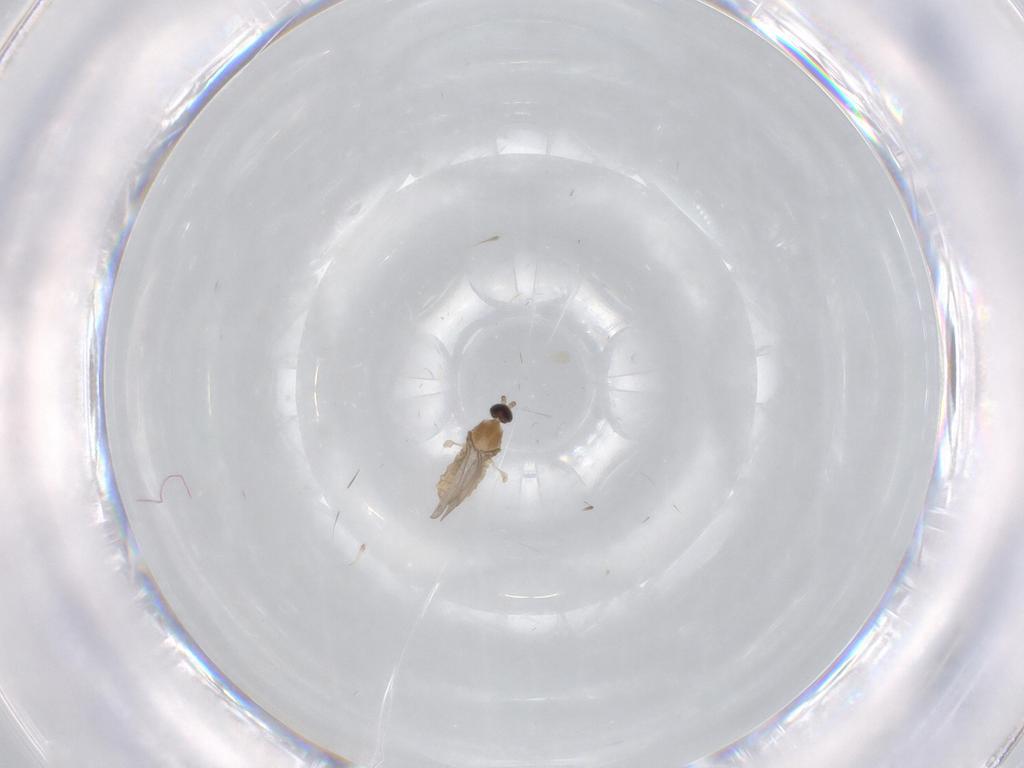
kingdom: Animalia
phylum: Arthropoda
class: Insecta
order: Diptera
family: Cecidomyiidae
